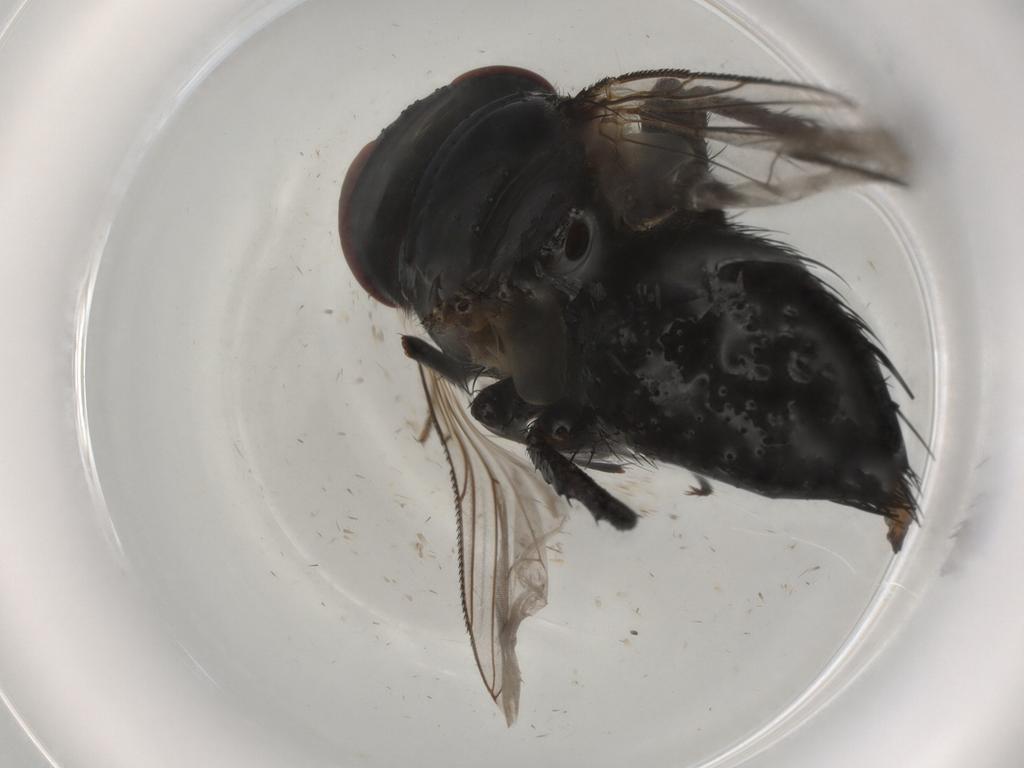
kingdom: Animalia
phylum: Arthropoda
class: Insecta
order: Diptera
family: Tachinidae
